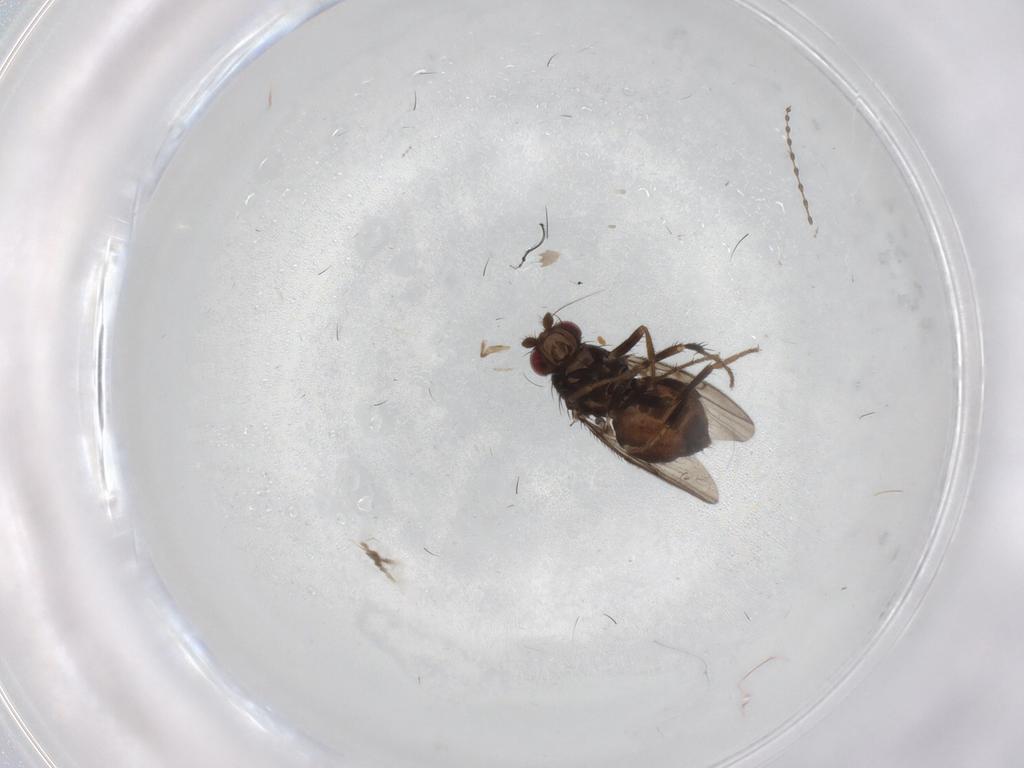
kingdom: Animalia
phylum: Arthropoda
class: Insecta
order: Diptera
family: Sphaeroceridae
